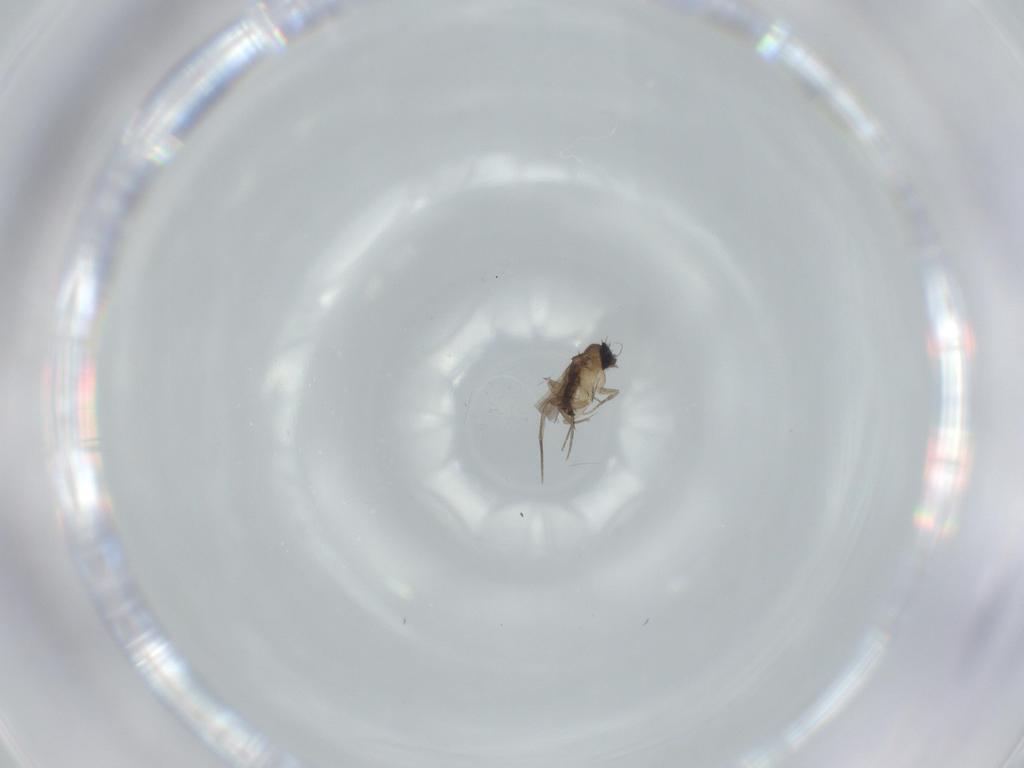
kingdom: Animalia
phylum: Arthropoda
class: Insecta
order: Diptera
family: Phoridae
